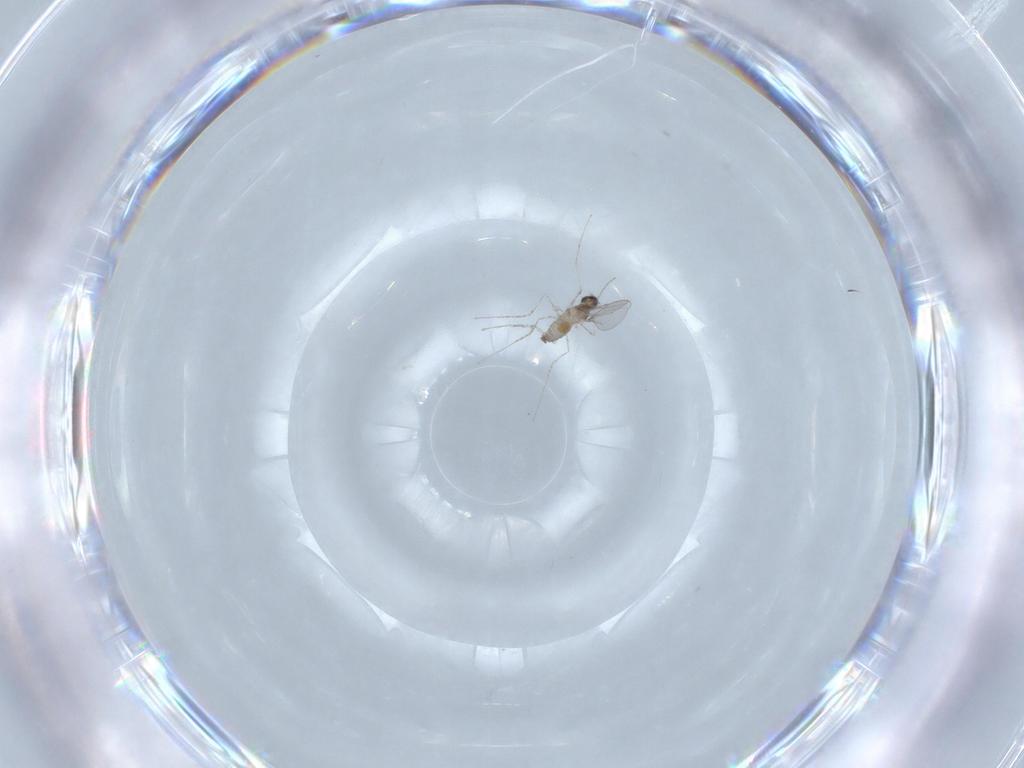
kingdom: Animalia
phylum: Arthropoda
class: Insecta
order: Diptera
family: Cecidomyiidae
